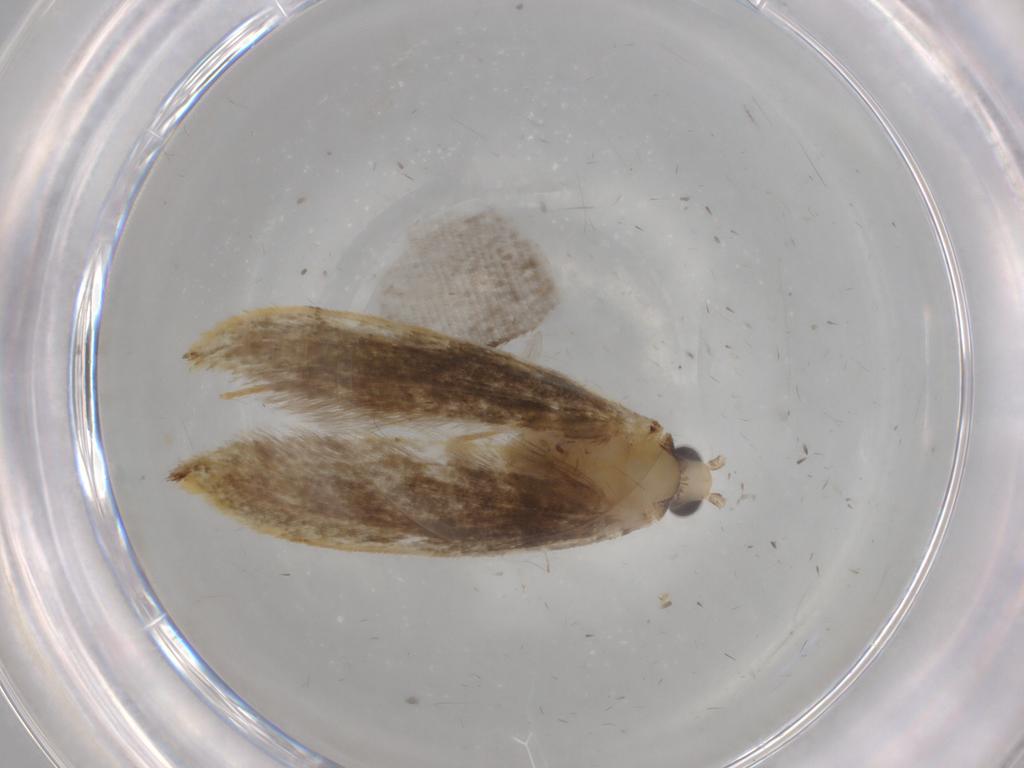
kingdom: Animalia
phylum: Arthropoda
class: Insecta
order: Lepidoptera
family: Tineidae
